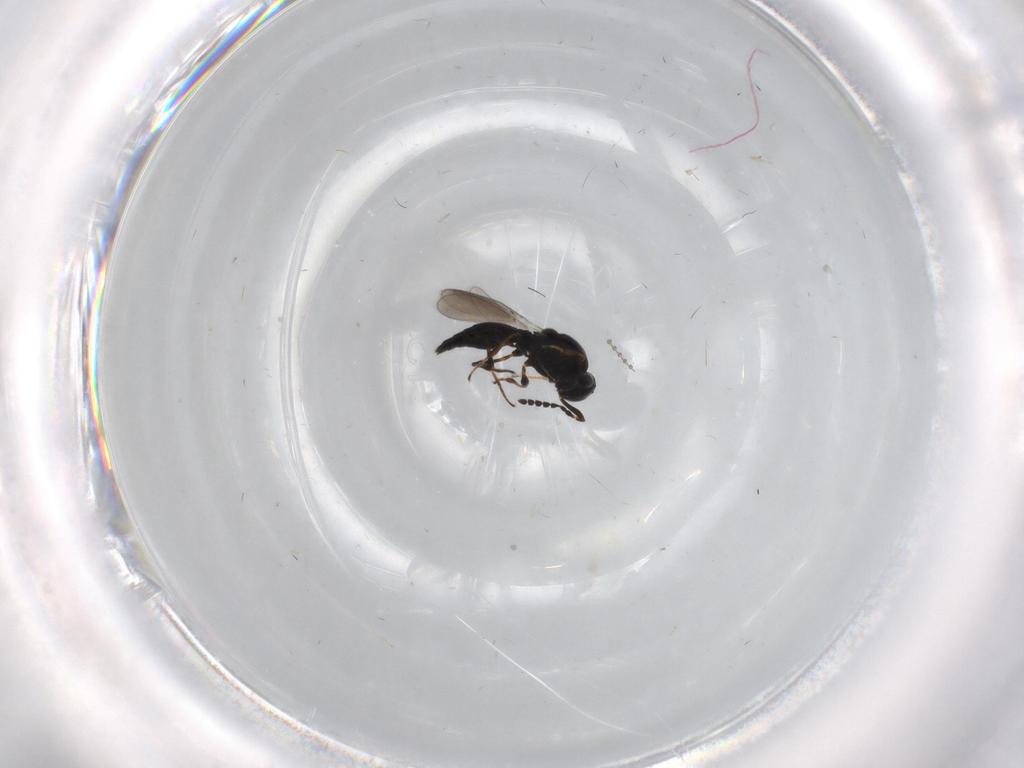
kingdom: Animalia
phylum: Arthropoda
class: Insecta
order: Hymenoptera
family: Platygastridae
